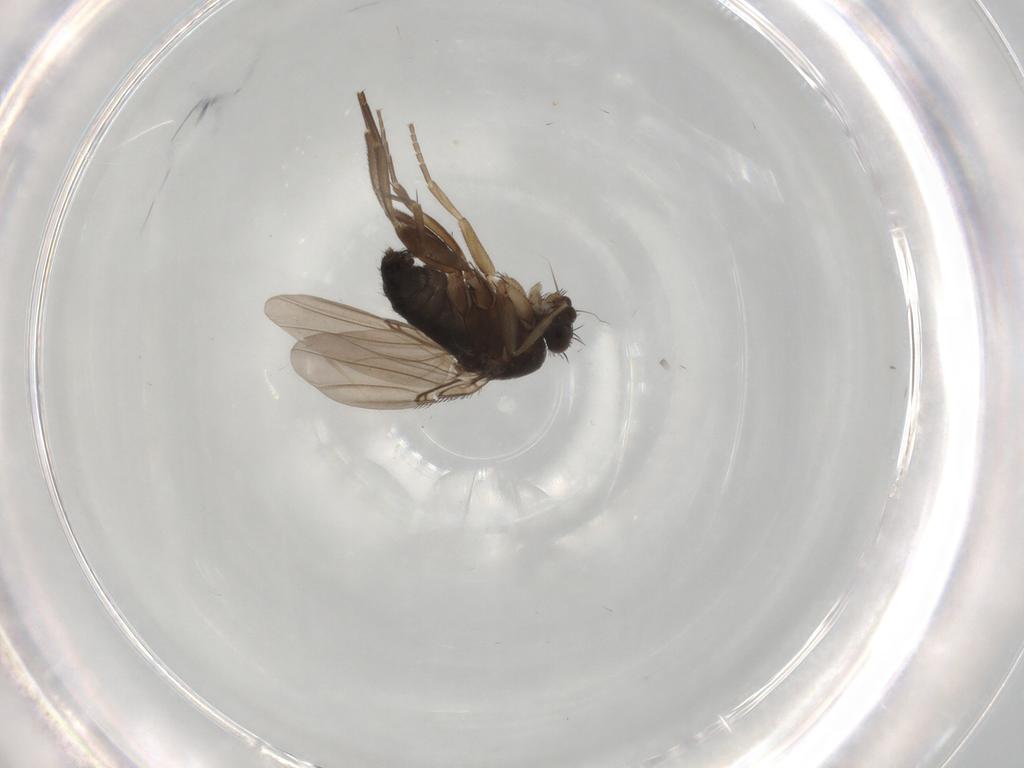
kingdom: Animalia
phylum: Arthropoda
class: Insecta
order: Diptera
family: Phoridae
